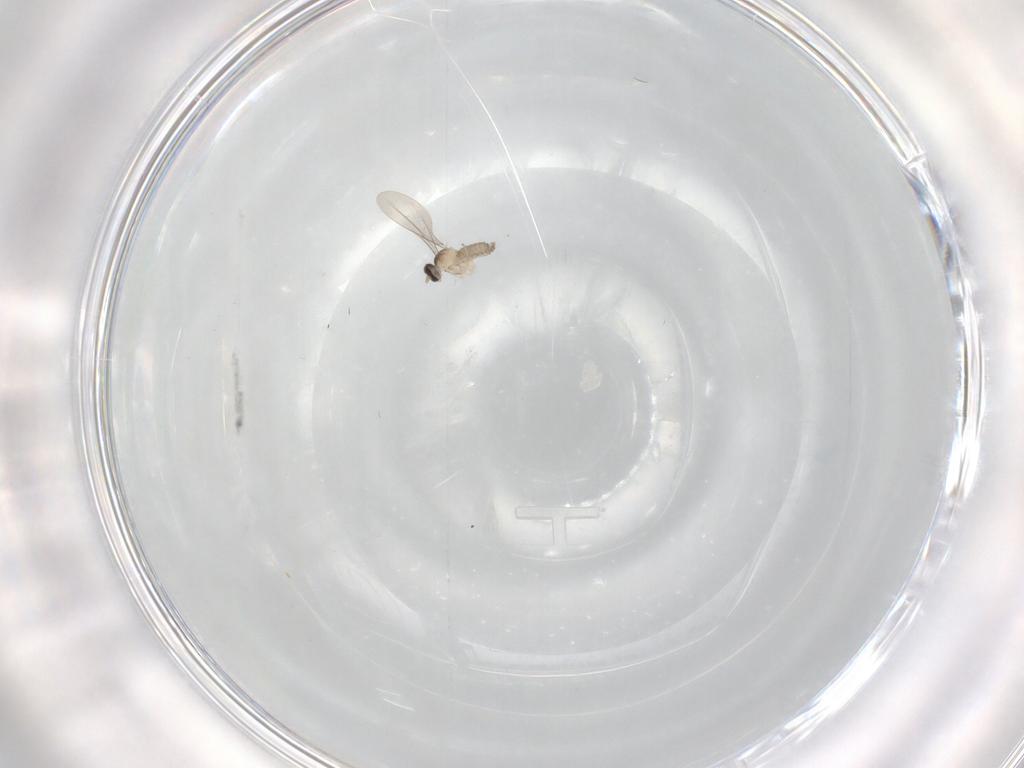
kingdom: Animalia
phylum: Arthropoda
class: Insecta
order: Diptera
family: Cecidomyiidae
